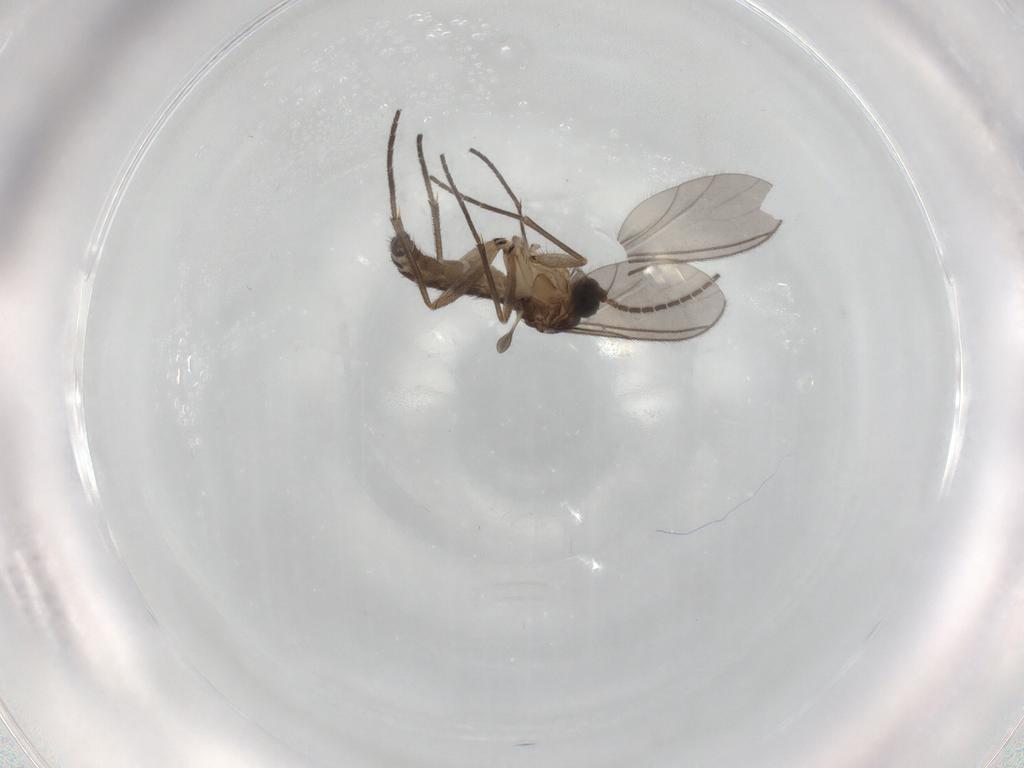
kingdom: Animalia
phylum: Arthropoda
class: Insecta
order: Diptera
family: Sciaridae
